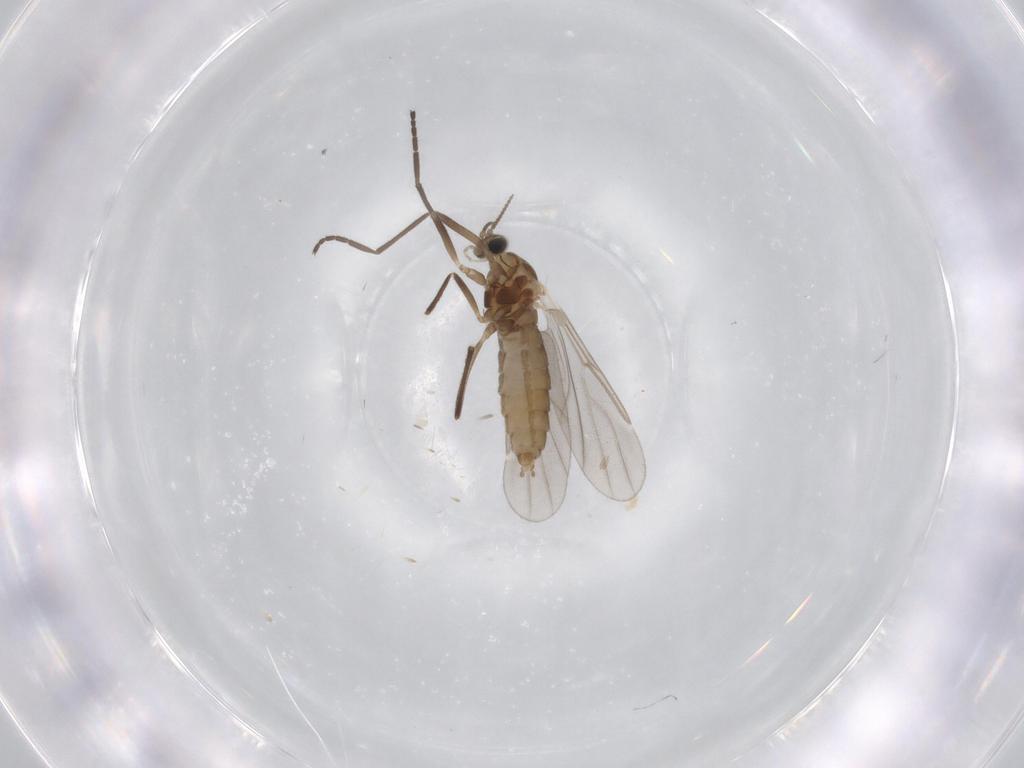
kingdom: Animalia
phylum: Arthropoda
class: Insecta
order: Diptera
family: Cecidomyiidae
